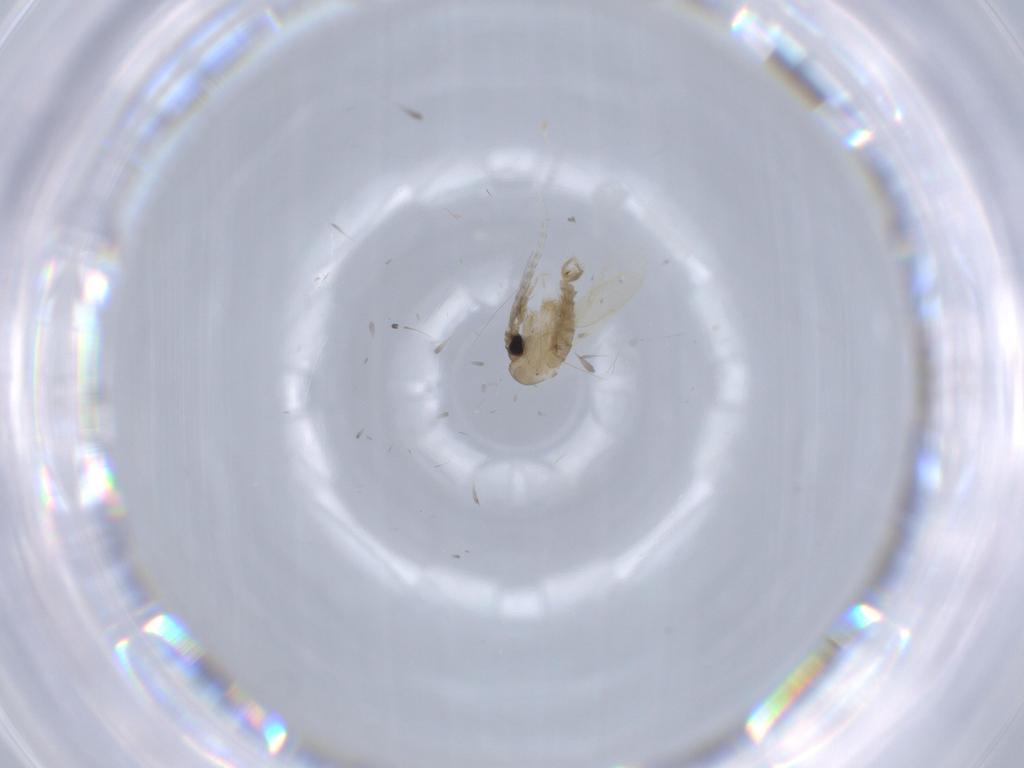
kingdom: Animalia
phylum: Arthropoda
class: Insecta
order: Diptera
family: Psychodidae
